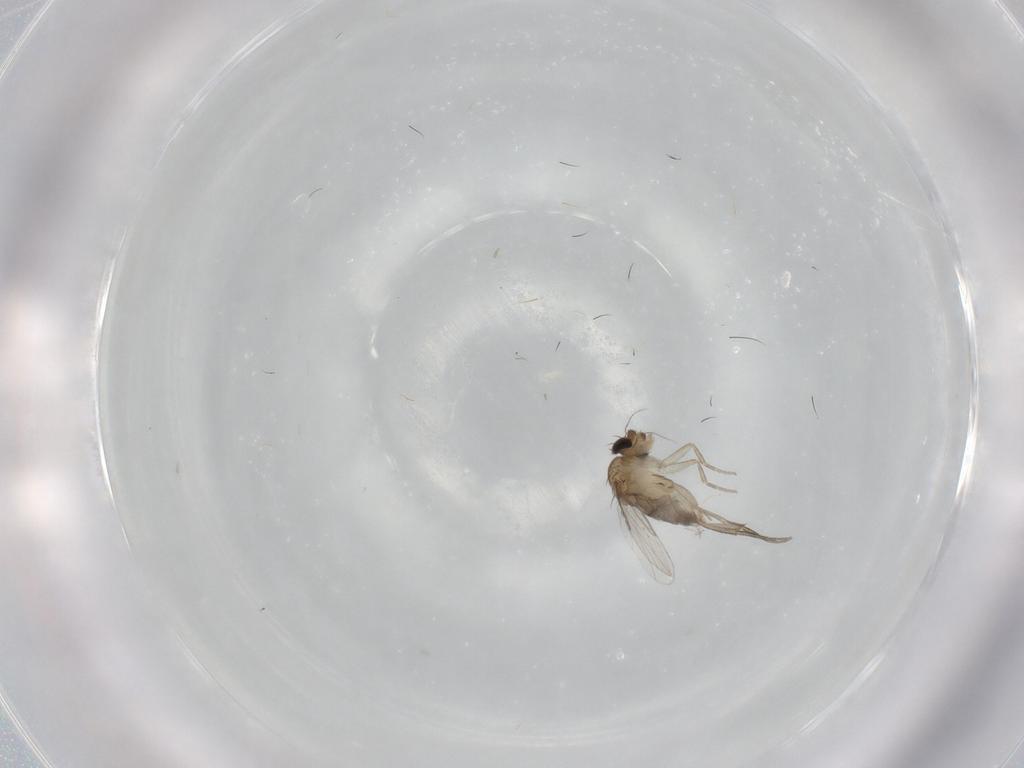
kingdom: Animalia
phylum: Arthropoda
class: Insecta
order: Diptera
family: Phoridae
